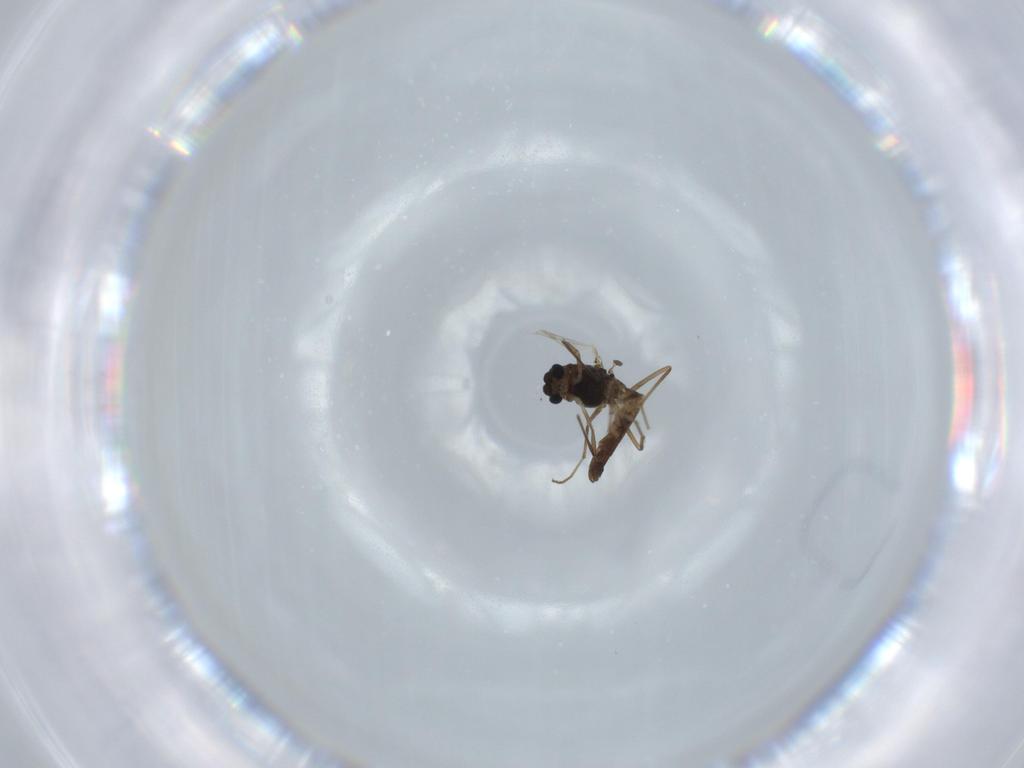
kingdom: Animalia
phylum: Arthropoda
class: Insecta
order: Diptera
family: Chironomidae
